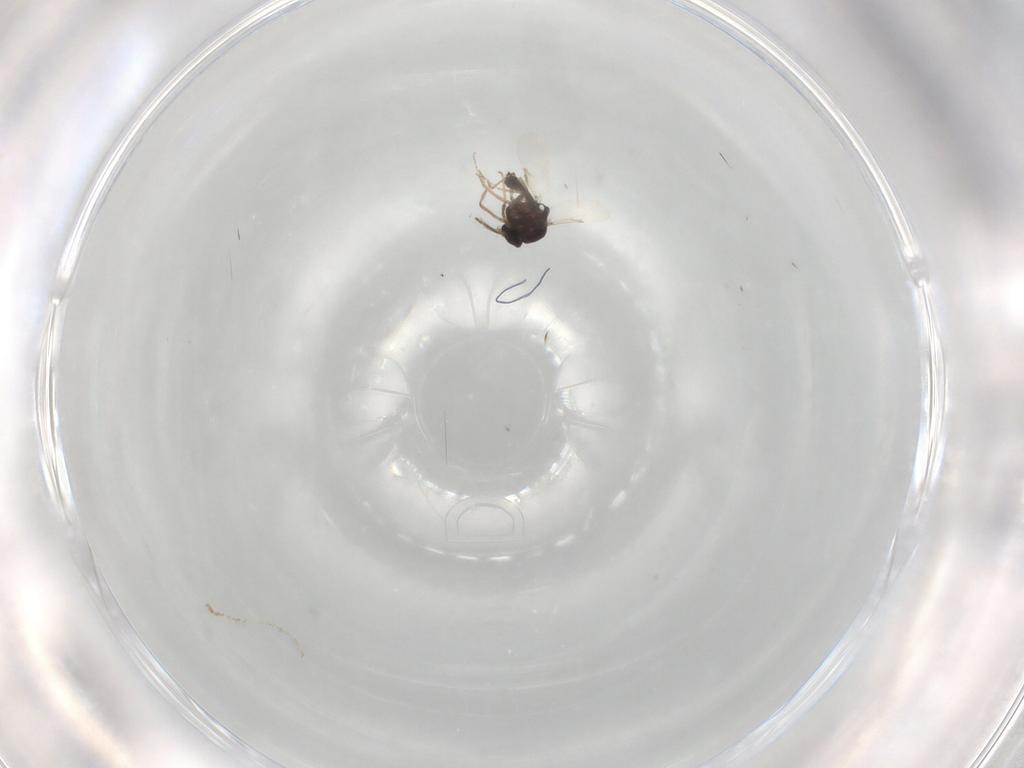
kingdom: Animalia
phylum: Arthropoda
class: Insecta
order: Diptera
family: Ceratopogonidae
